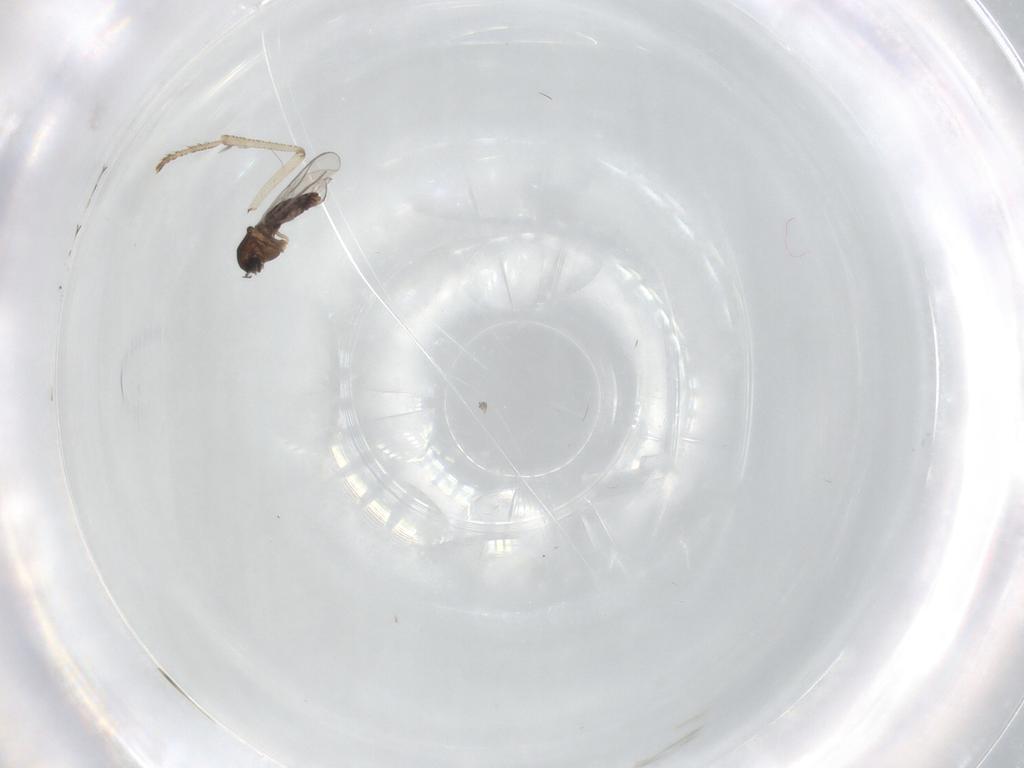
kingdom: Animalia
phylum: Arthropoda
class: Insecta
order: Diptera
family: Chironomidae
